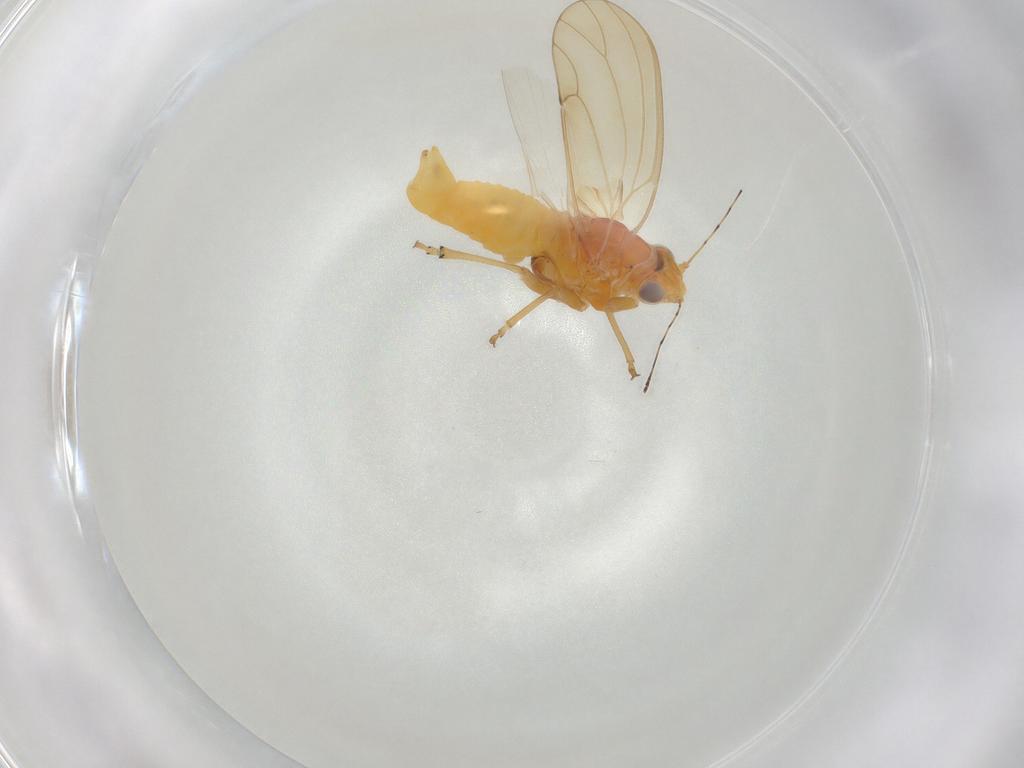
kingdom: Animalia
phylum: Arthropoda
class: Insecta
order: Hemiptera
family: Psylloidea_incertae_sedis
